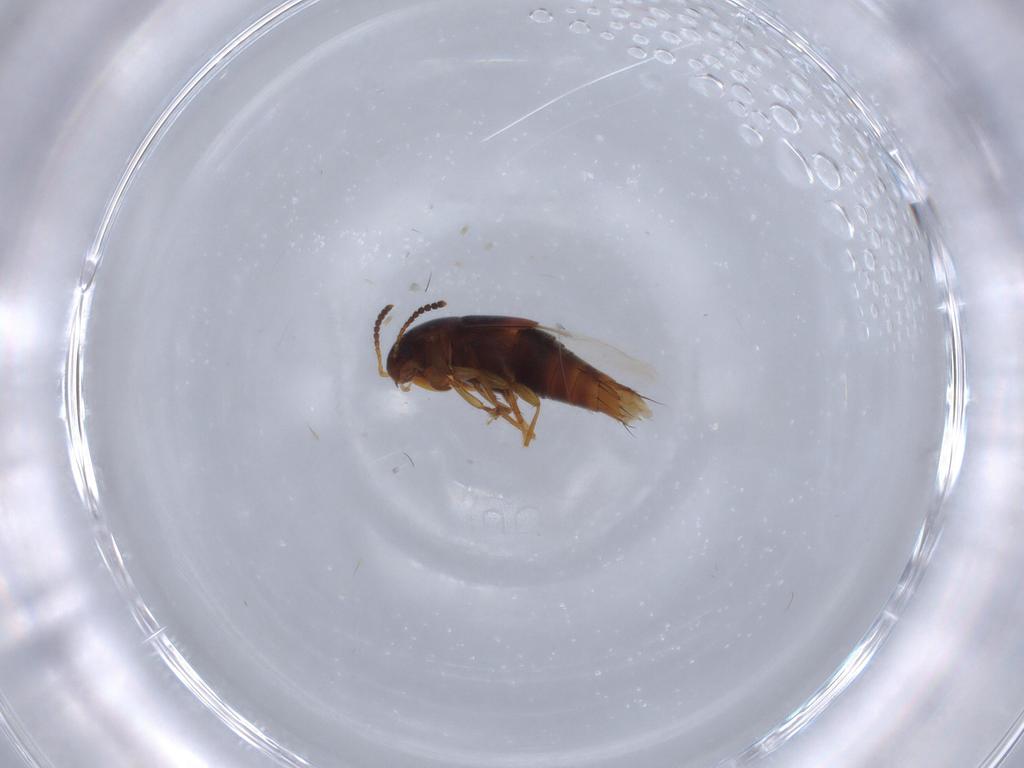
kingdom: Animalia
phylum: Arthropoda
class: Insecta
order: Coleoptera
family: Staphylinidae
